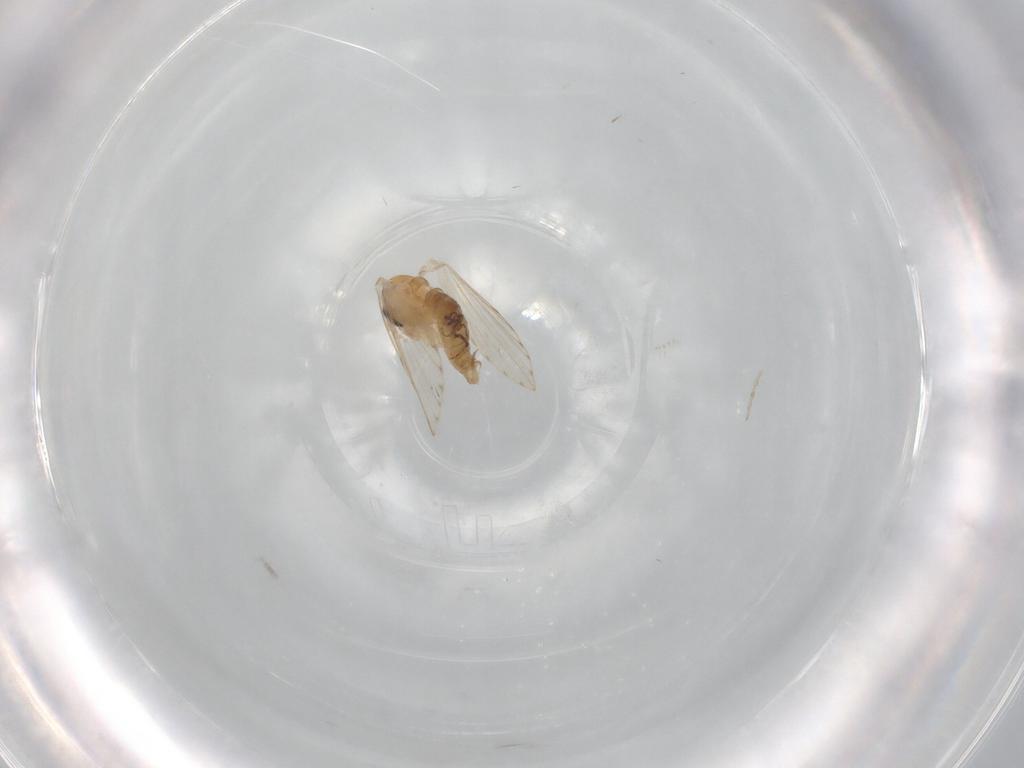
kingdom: Animalia
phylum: Arthropoda
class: Insecta
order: Diptera
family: Psychodidae
